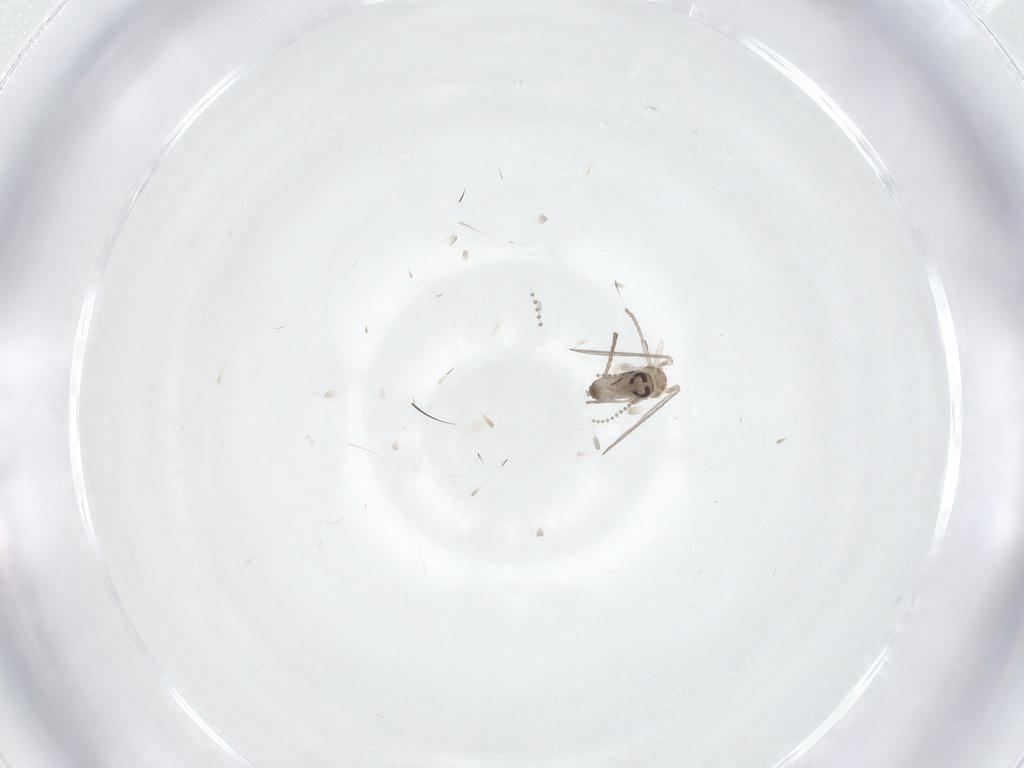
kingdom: Animalia
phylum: Arthropoda
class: Insecta
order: Diptera
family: Psychodidae
